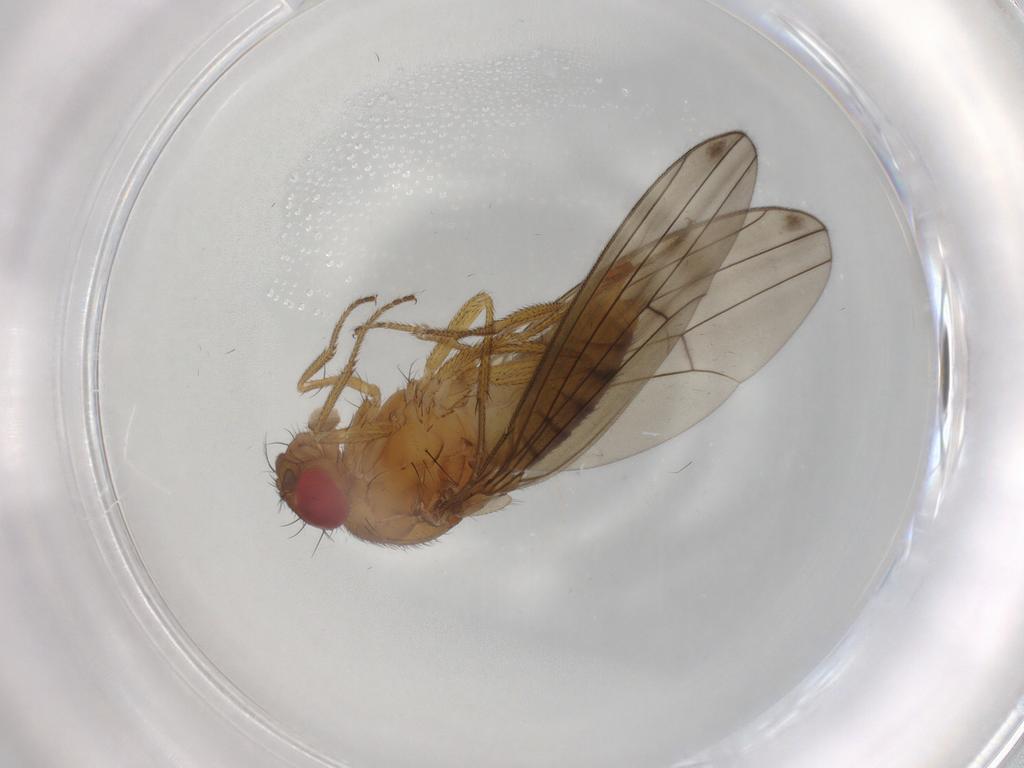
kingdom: Animalia
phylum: Arthropoda
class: Insecta
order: Diptera
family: Drosophilidae
